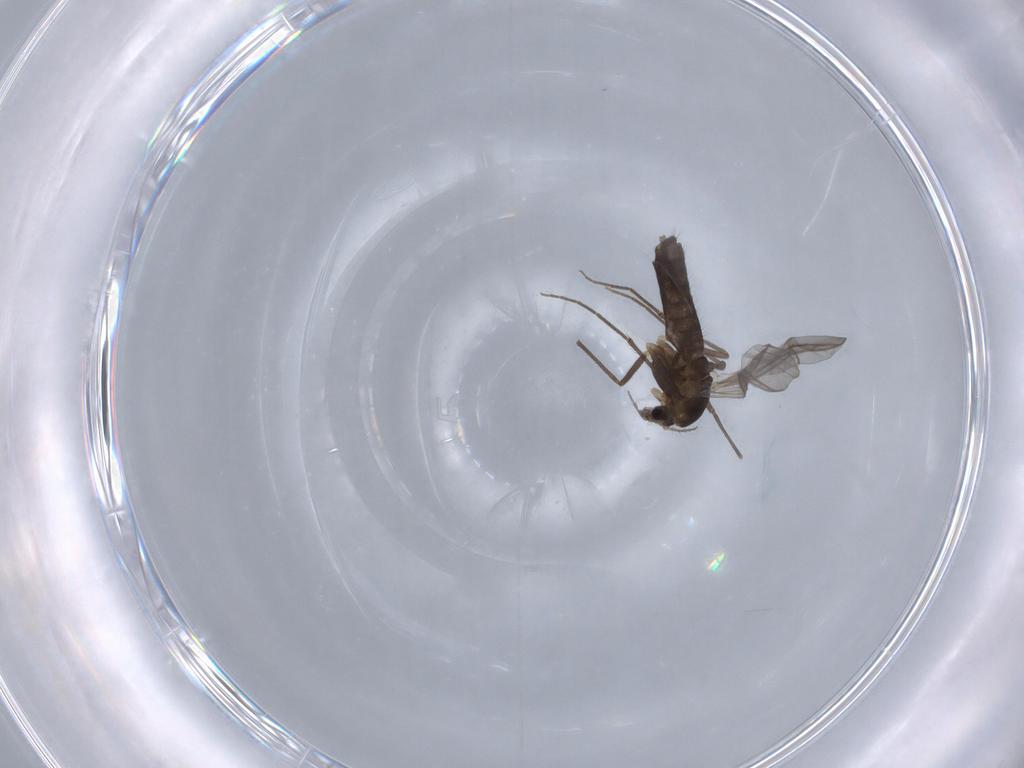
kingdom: Animalia
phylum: Arthropoda
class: Insecta
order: Diptera
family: Chironomidae
